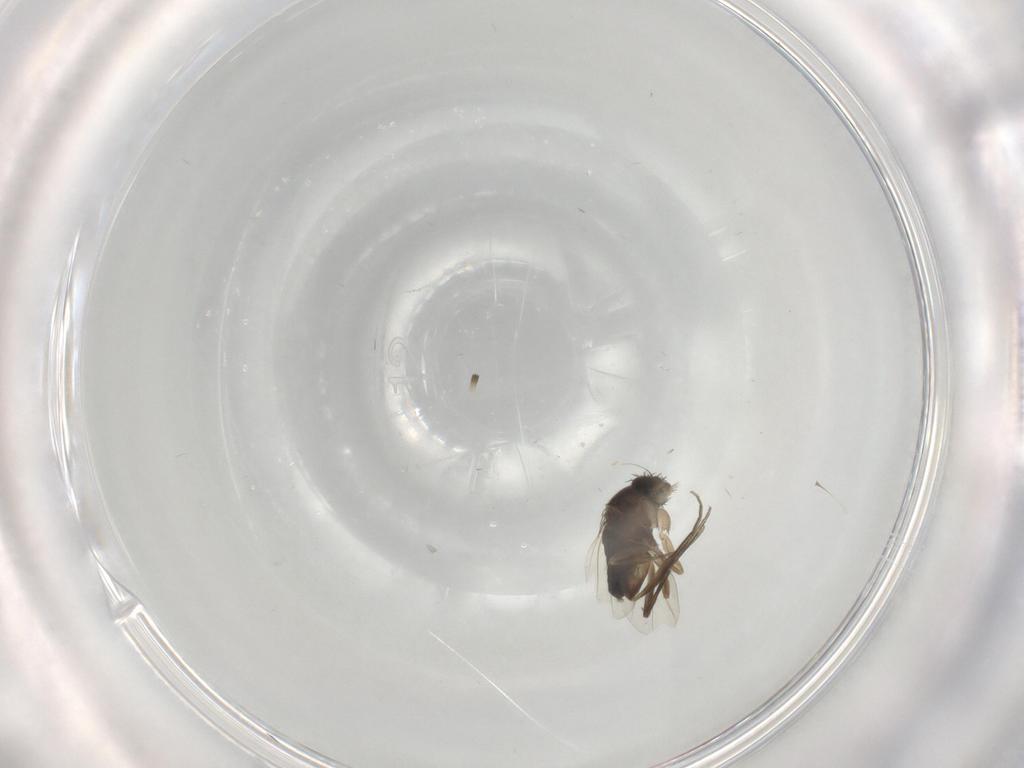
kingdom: Animalia
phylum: Arthropoda
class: Insecta
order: Diptera
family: Phoridae
